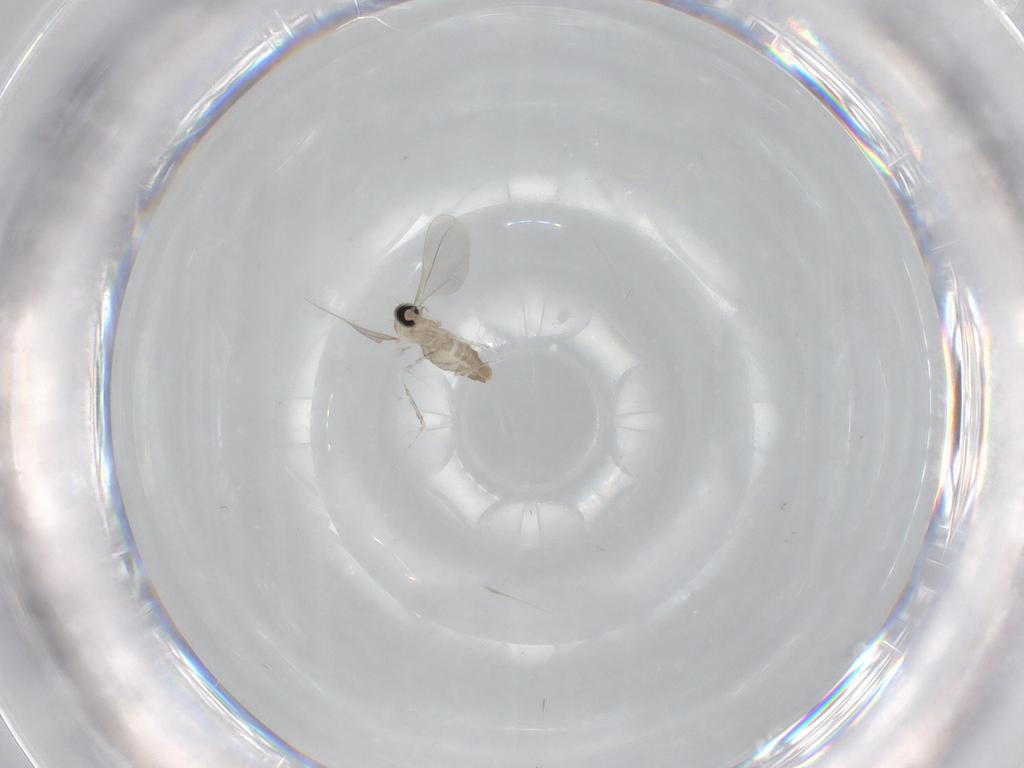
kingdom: Animalia
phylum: Arthropoda
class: Insecta
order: Diptera
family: Cecidomyiidae
